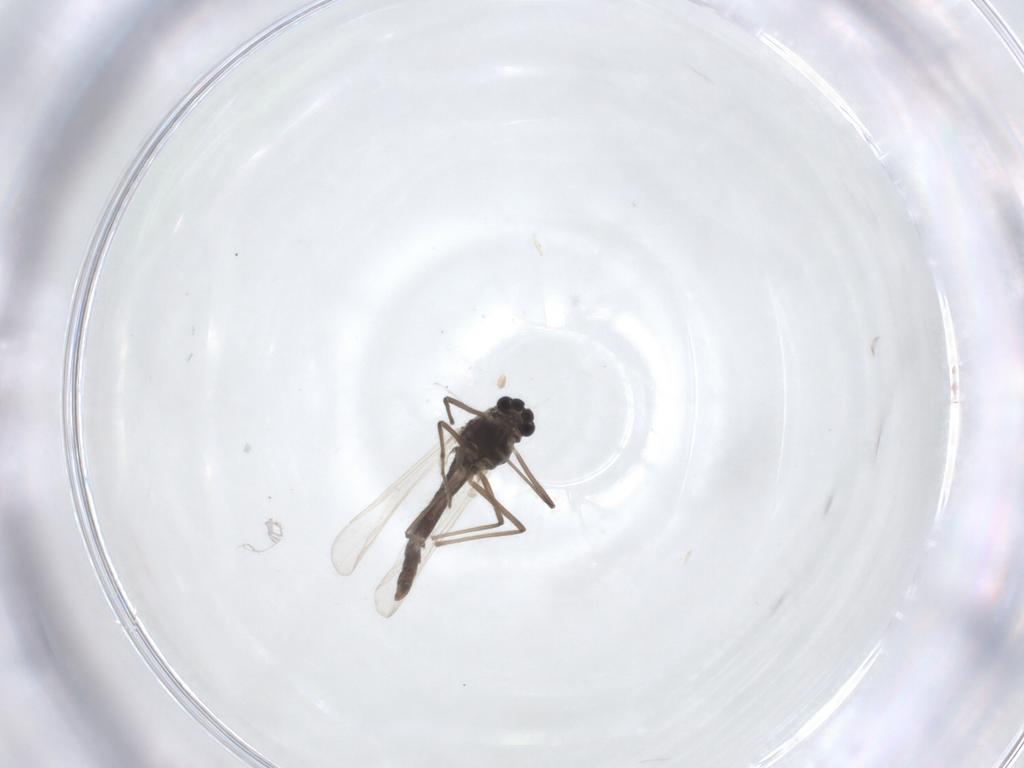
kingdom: Animalia
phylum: Arthropoda
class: Insecta
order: Diptera
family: Chironomidae
